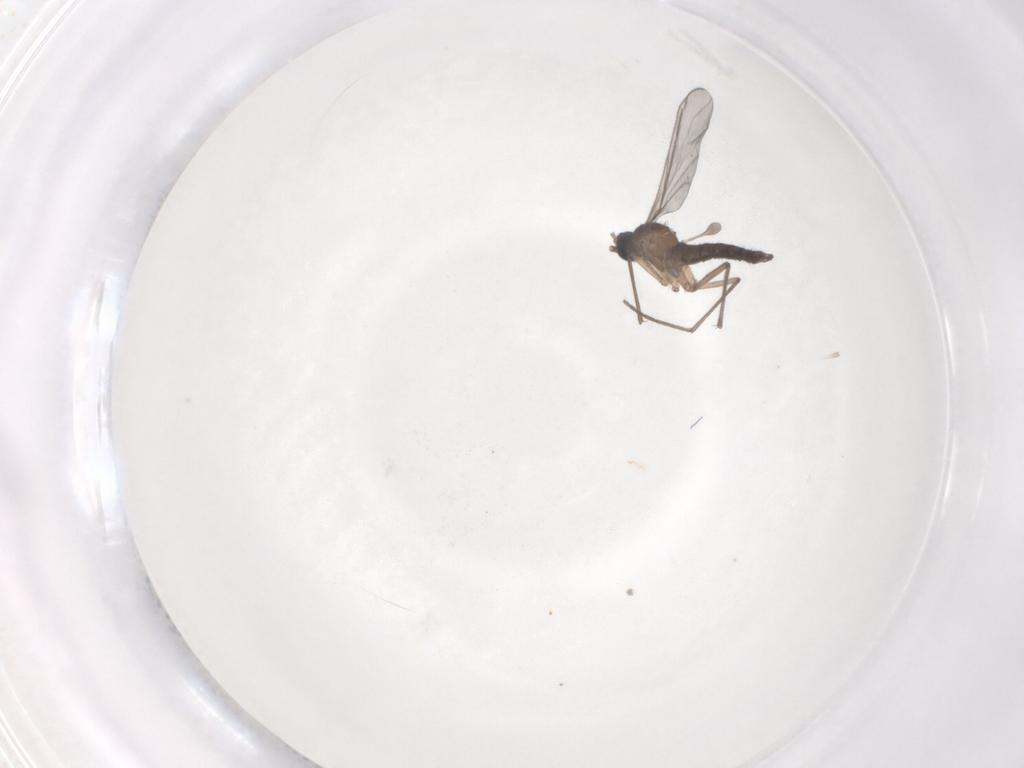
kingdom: Animalia
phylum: Arthropoda
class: Insecta
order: Diptera
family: Sciaridae
